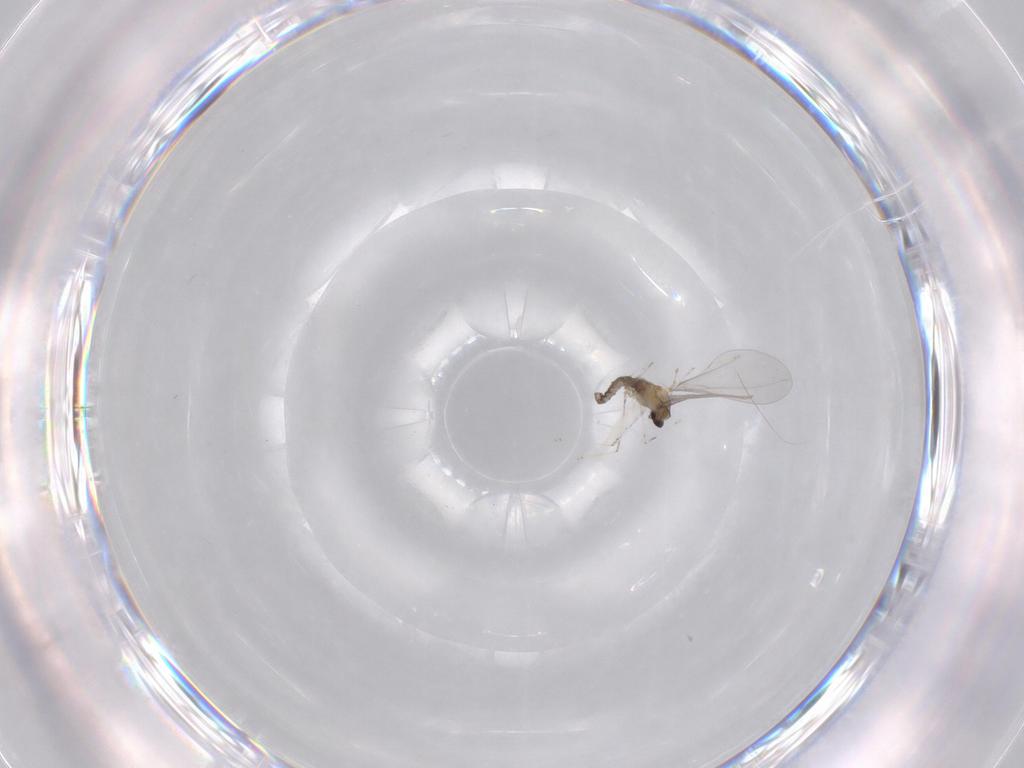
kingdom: Animalia
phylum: Arthropoda
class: Insecta
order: Diptera
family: Cecidomyiidae
